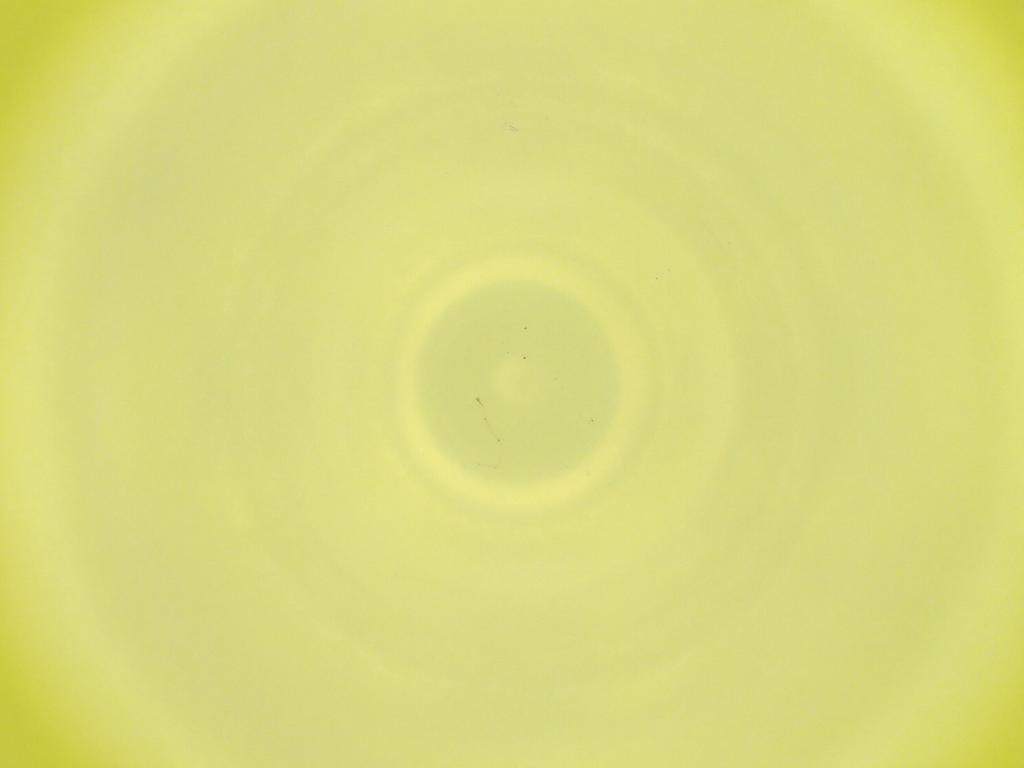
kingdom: Animalia
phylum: Arthropoda
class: Insecta
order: Diptera
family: Cecidomyiidae
